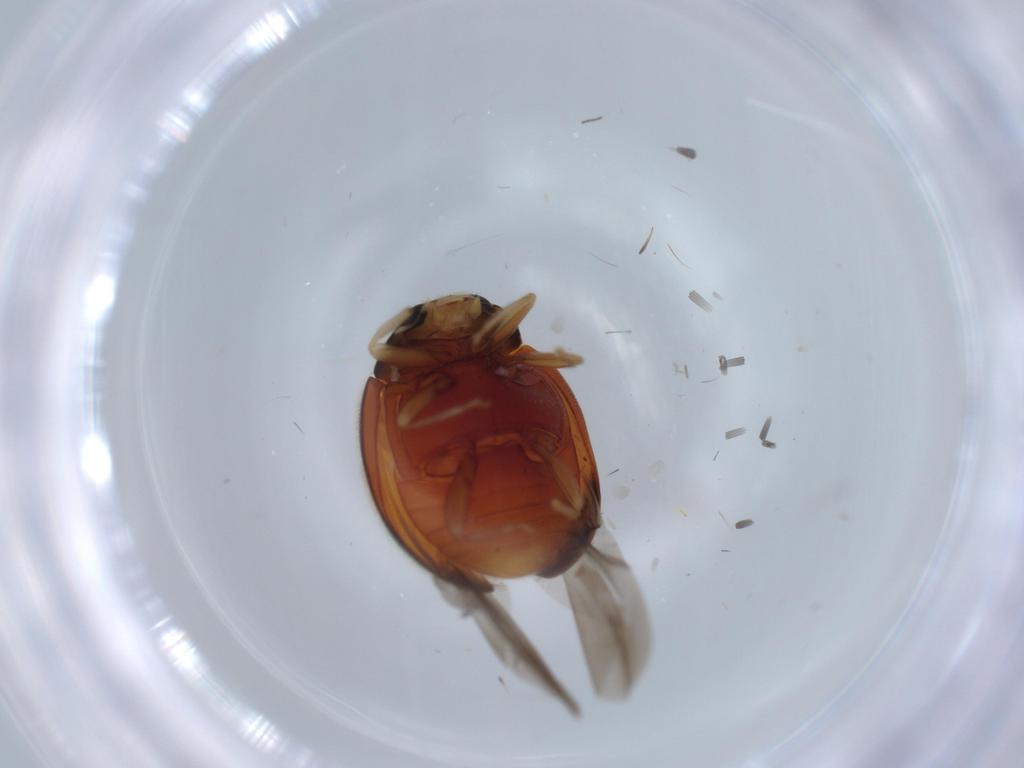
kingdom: Animalia
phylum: Arthropoda
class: Insecta
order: Coleoptera
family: Coccinellidae
